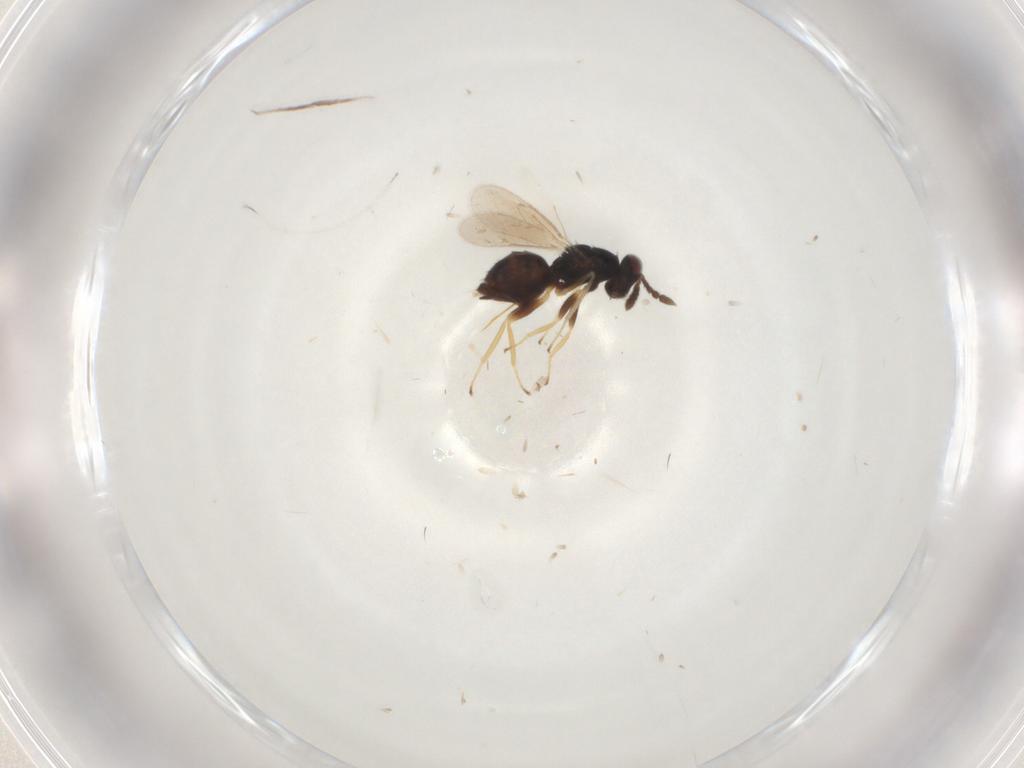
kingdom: Animalia
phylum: Arthropoda
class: Insecta
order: Hymenoptera
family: Eulophidae
